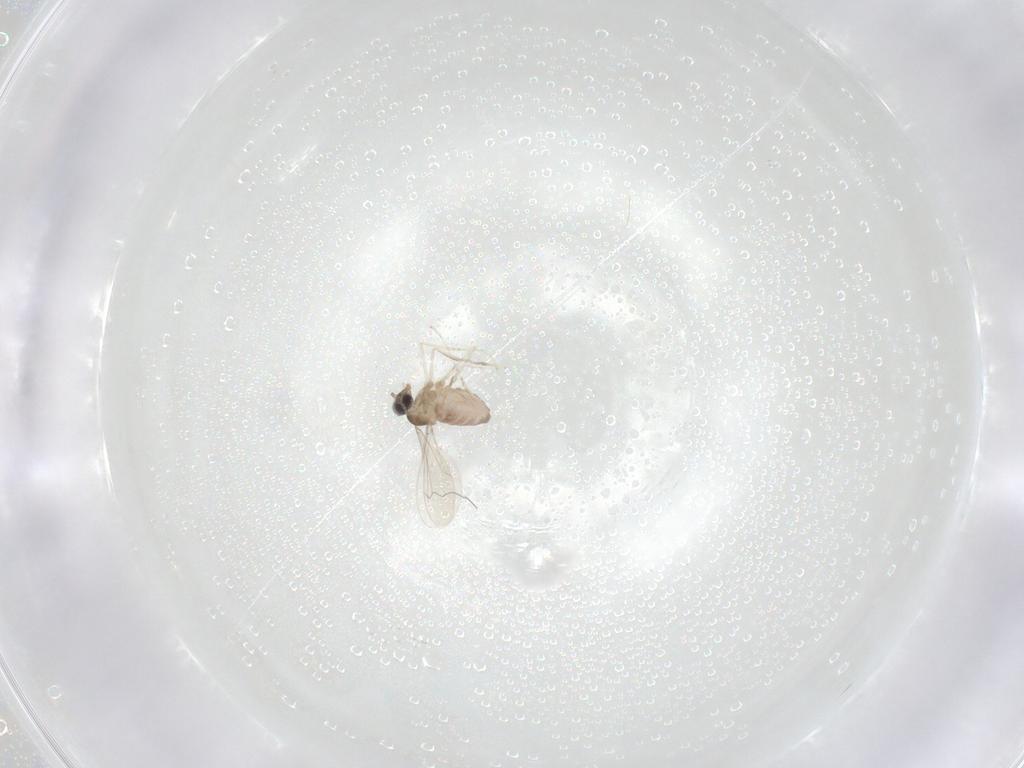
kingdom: Animalia
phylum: Arthropoda
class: Insecta
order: Diptera
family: Cecidomyiidae
